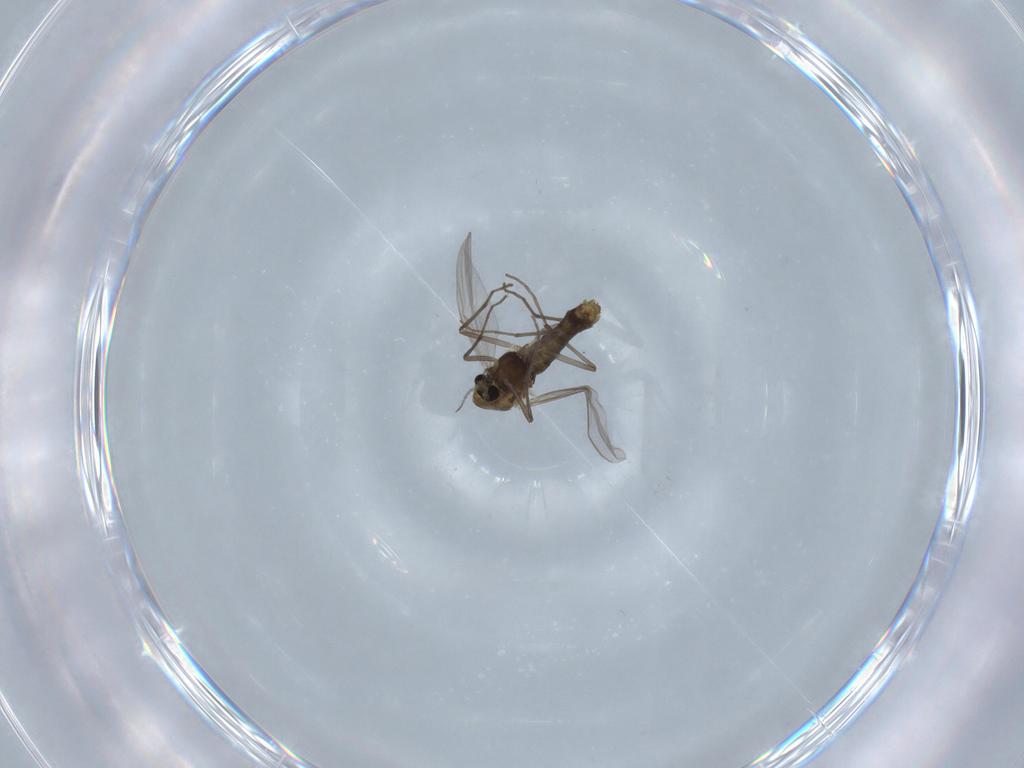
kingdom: Animalia
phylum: Arthropoda
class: Insecta
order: Diptera
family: Chironomidae
